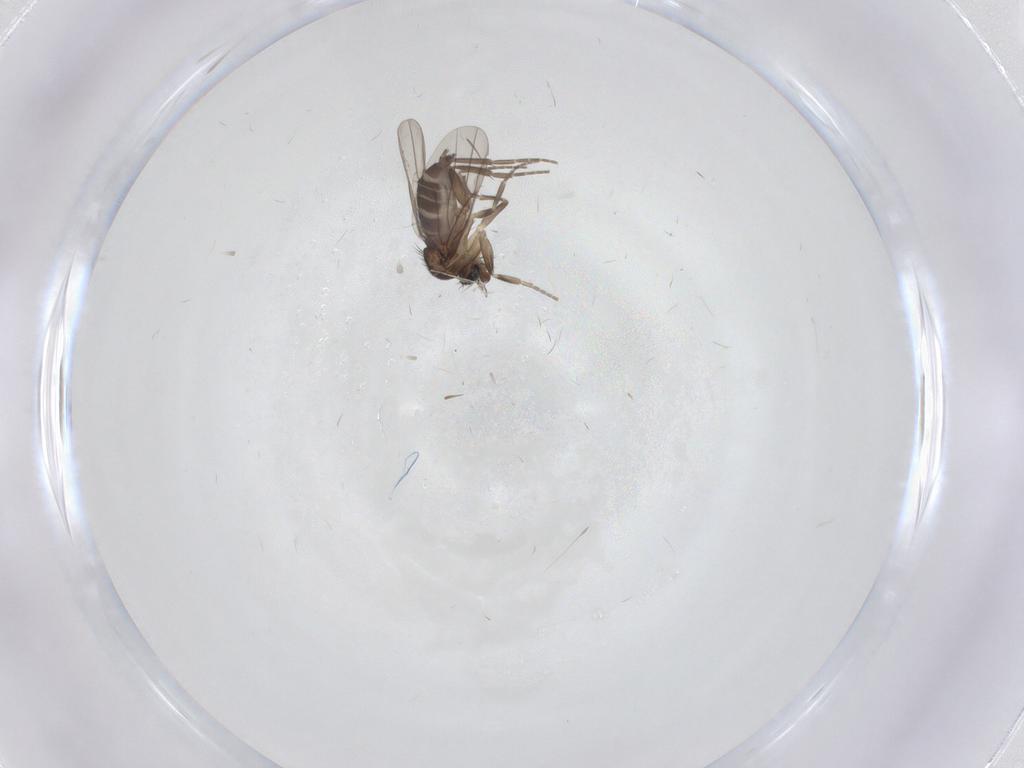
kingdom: Animalia
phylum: Arthropoda
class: Insecta
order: Diptera
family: Phoridae
